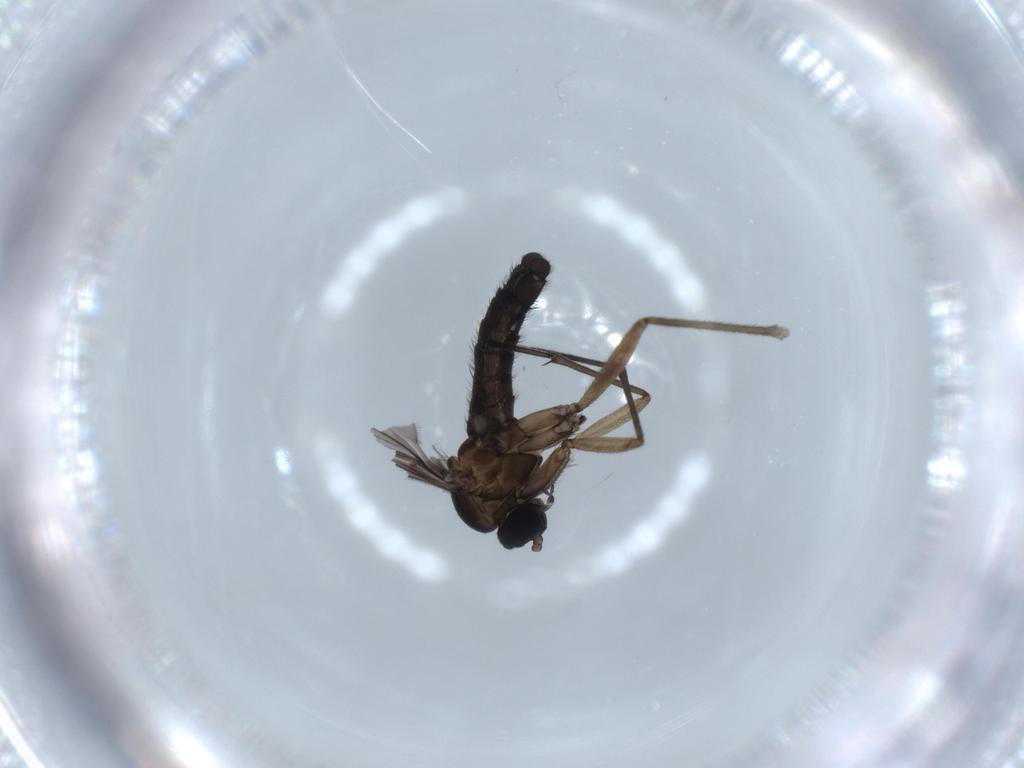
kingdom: Animalia
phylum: Arthropoda
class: Insecta
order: Diptera
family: Sciaridae
